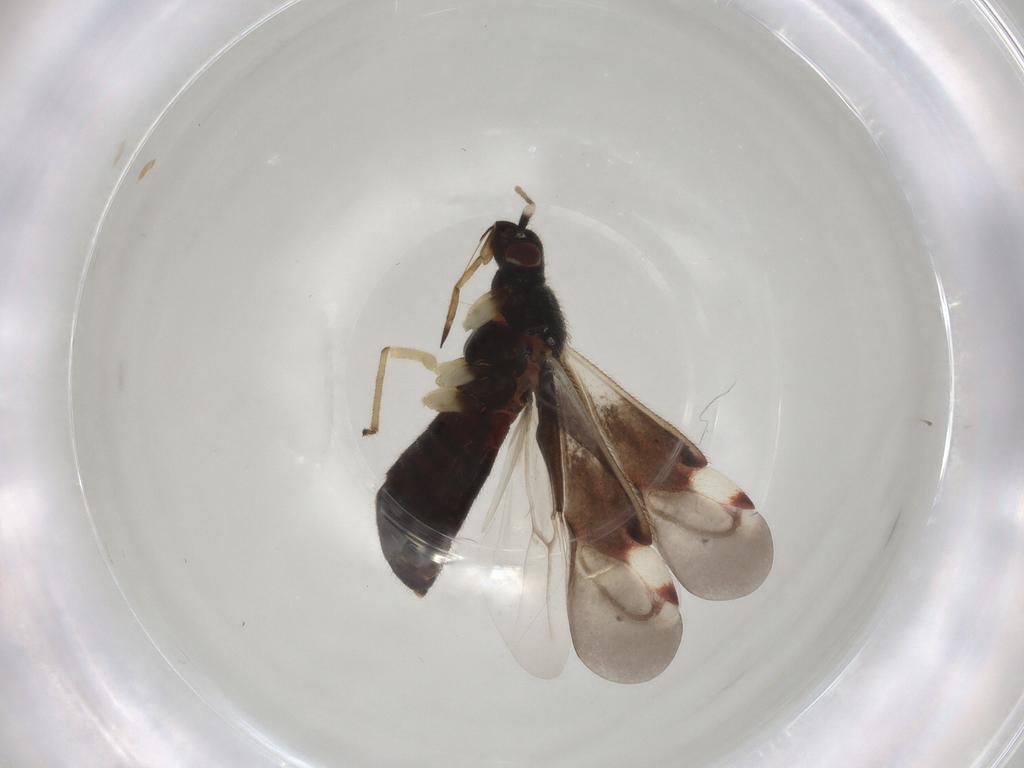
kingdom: Animalia
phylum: Arthropoda
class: Insecta
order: Hemiptera
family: Miridae
